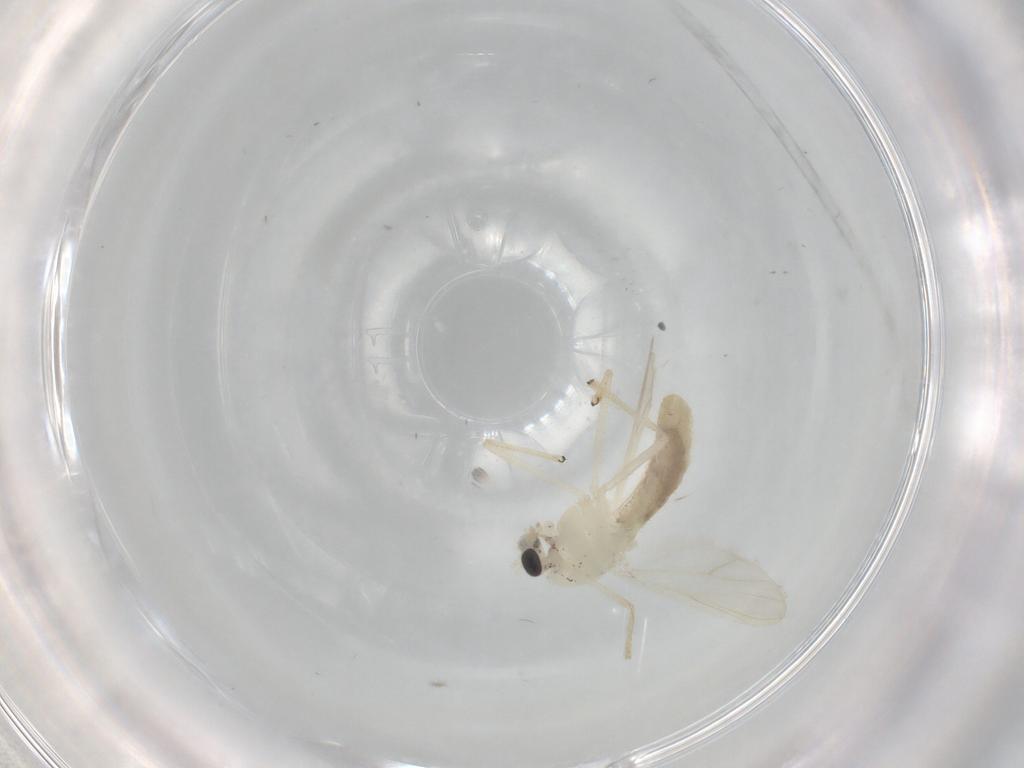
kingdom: Animalia
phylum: Arthropoda
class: Insecta
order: Diptera
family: Chironomidae
